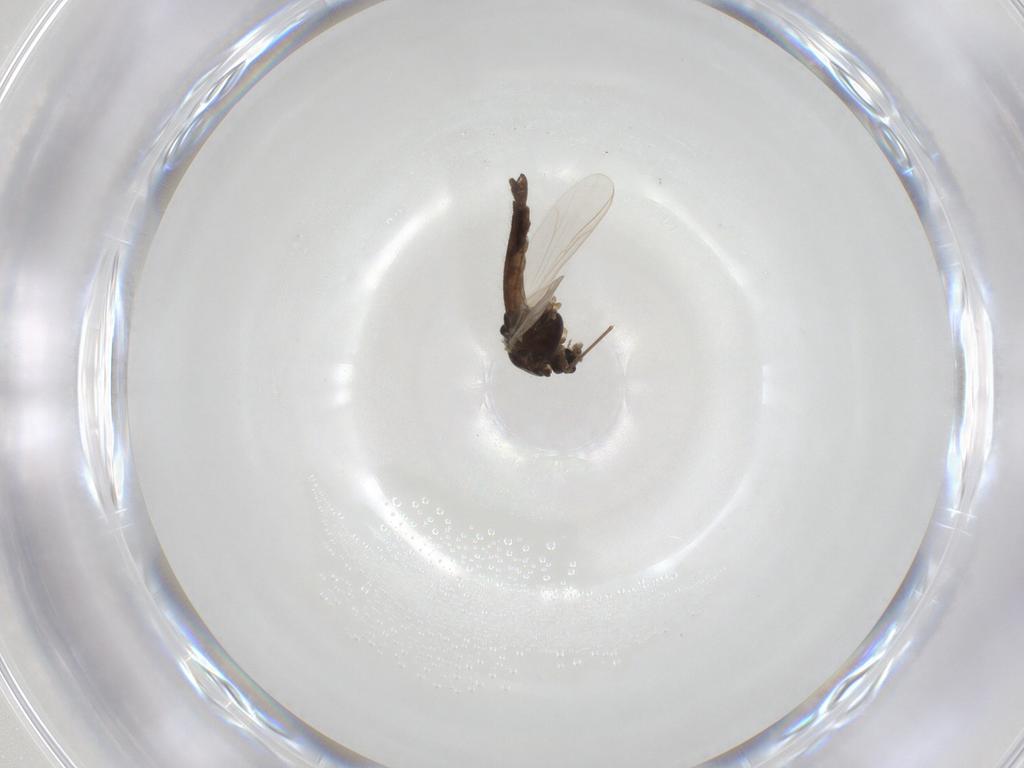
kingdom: Animalia
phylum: Arthropoda
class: Insecta
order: Diptera
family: Chironomidae
